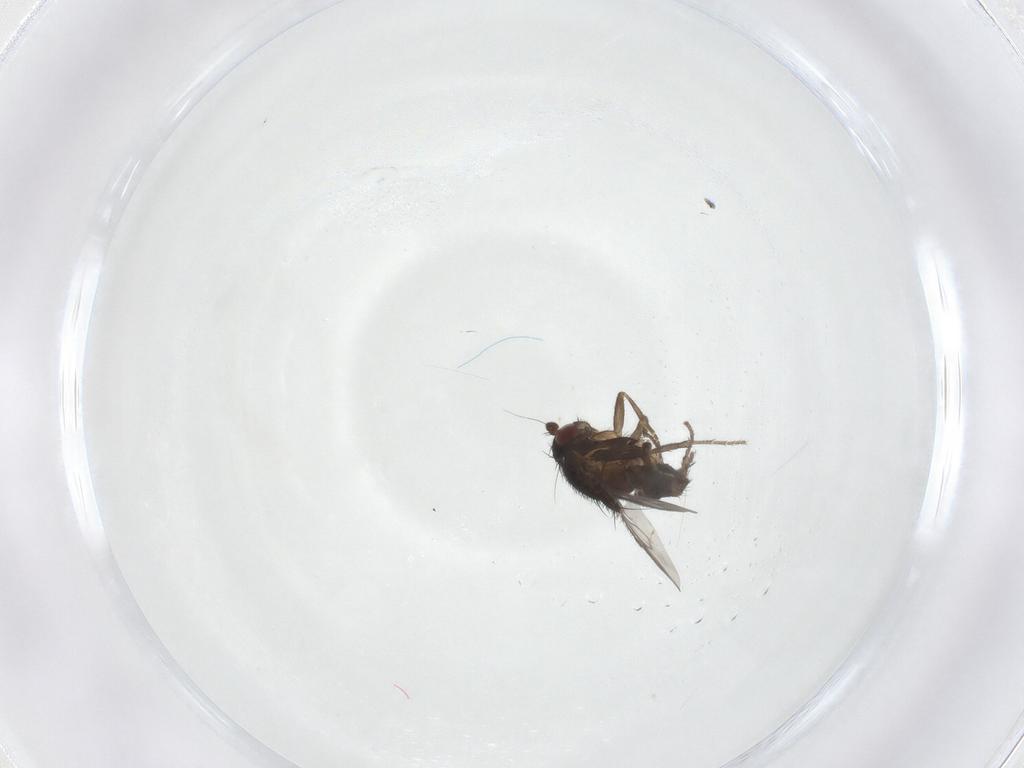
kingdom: Animalia
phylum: Arthropoda
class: Insecta
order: Diptera
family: Sphaeroceridae
